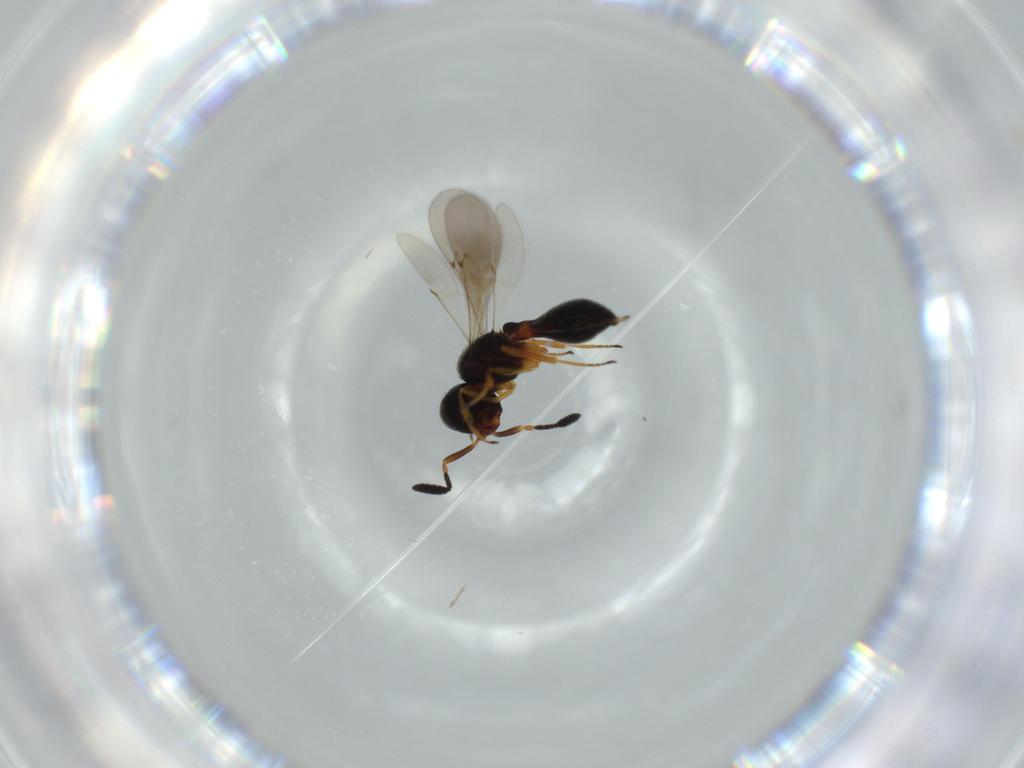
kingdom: Animalia
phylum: Arthropoda
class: Insecta
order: Hymenoptera
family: Scelionidae
